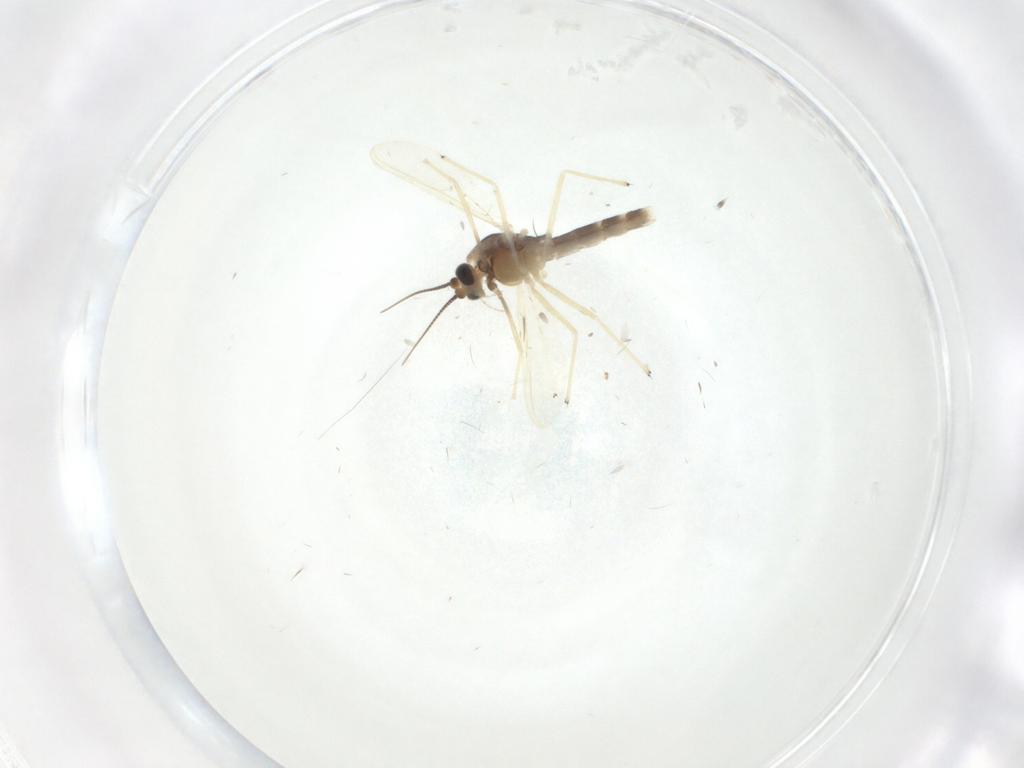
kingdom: Animalia
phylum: Arthropoda
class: Insecta
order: Diptera
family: Chironomidae
